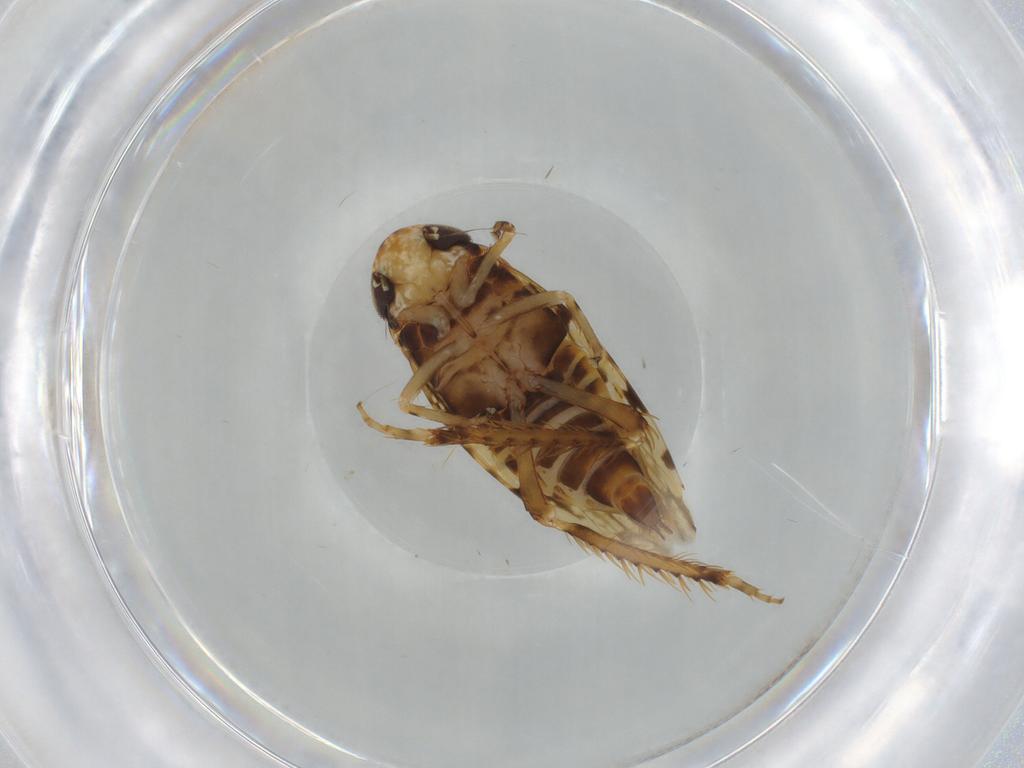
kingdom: Animalia
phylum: Arthropoda
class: Insecta
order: Hemiptera
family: Cicadellidae
